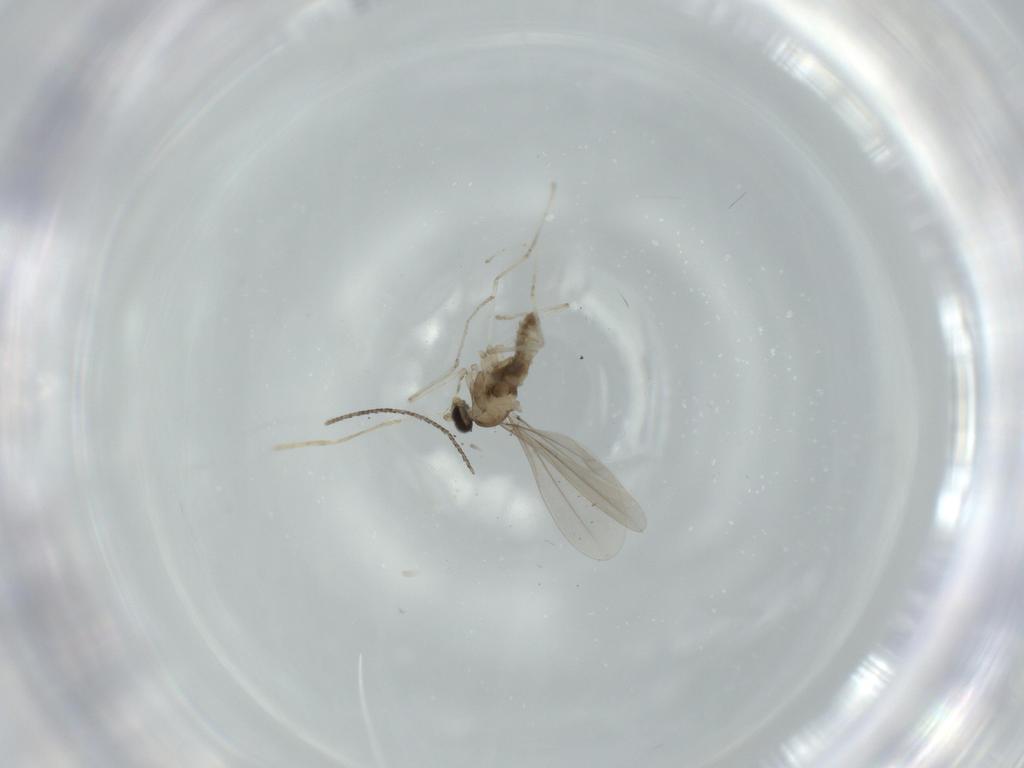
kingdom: Animalia
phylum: Arthropoda
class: Insecta
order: Diptera
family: Cecidomyiidae
